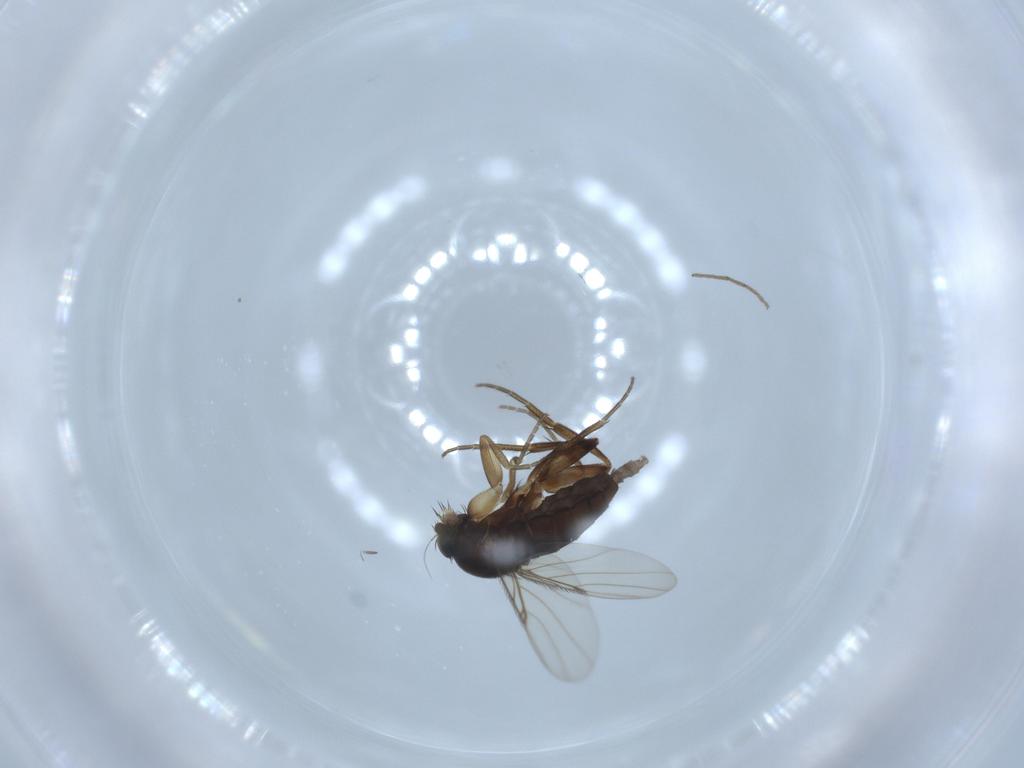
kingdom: Animalia
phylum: Arthropoda
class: Insecta
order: Diptera
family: Phoridae
